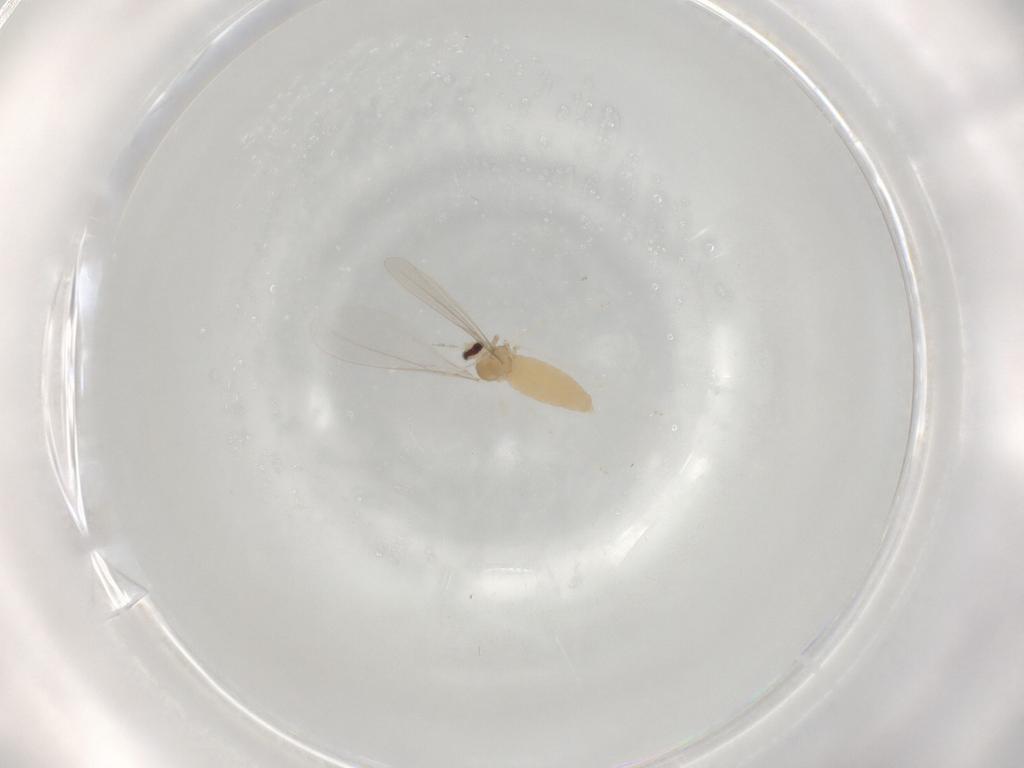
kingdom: Animalia
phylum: Arthropoda
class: Insecta
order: Diptera
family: Cecidomyiidae
